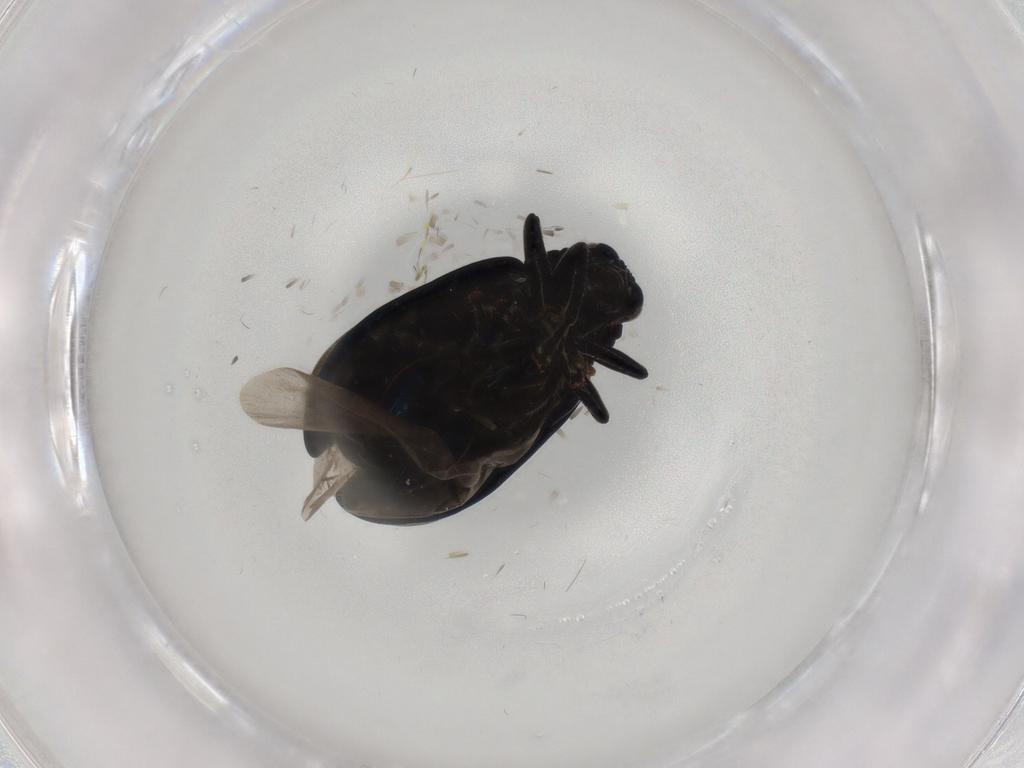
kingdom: Animalia
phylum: Arthropoda
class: Insecta
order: Coleoptera
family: Chrysomelidae
